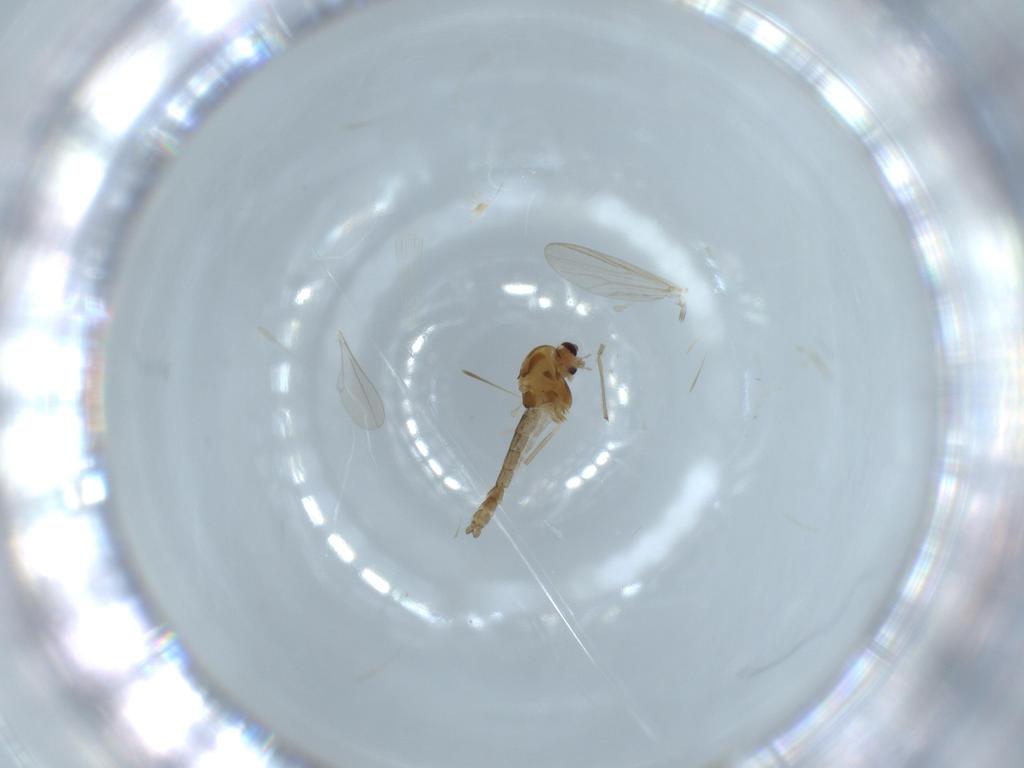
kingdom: Animalia
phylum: Arthropoda
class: Insecta
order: Diptera
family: Chironomidae
